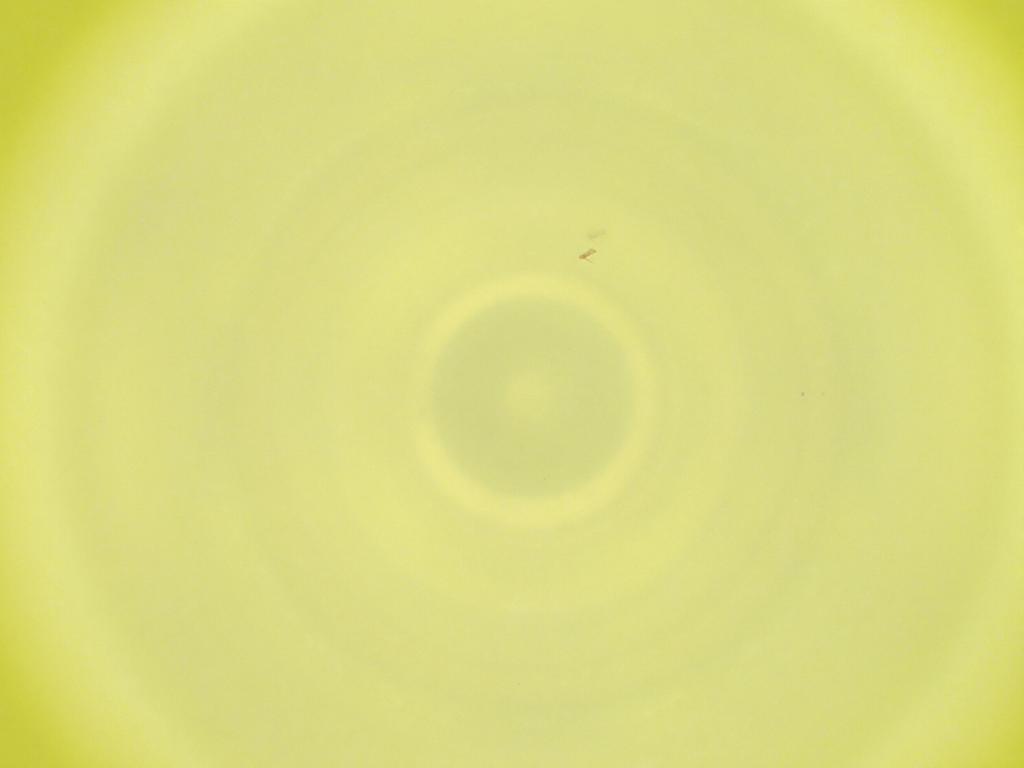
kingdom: Animalia
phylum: Arthropoda
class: Insecta
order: Diptera
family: Cecidomyiidae
